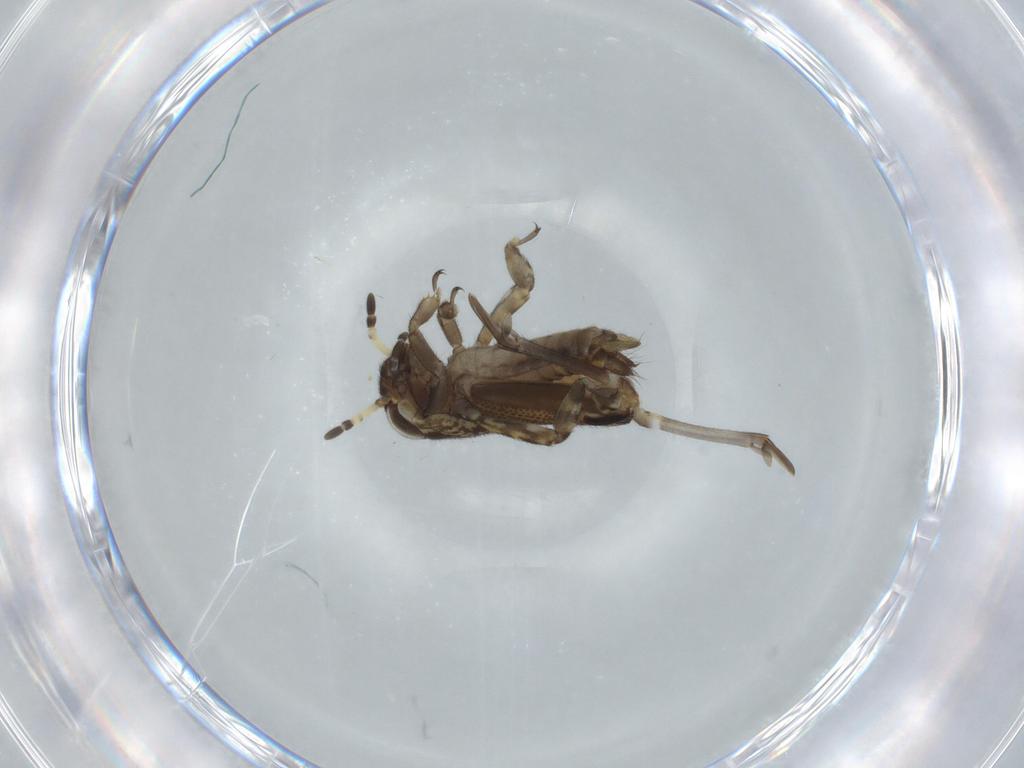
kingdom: Animalia
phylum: Arthropoda
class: Insecta
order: Orthoptera
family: Ripipterygidae
